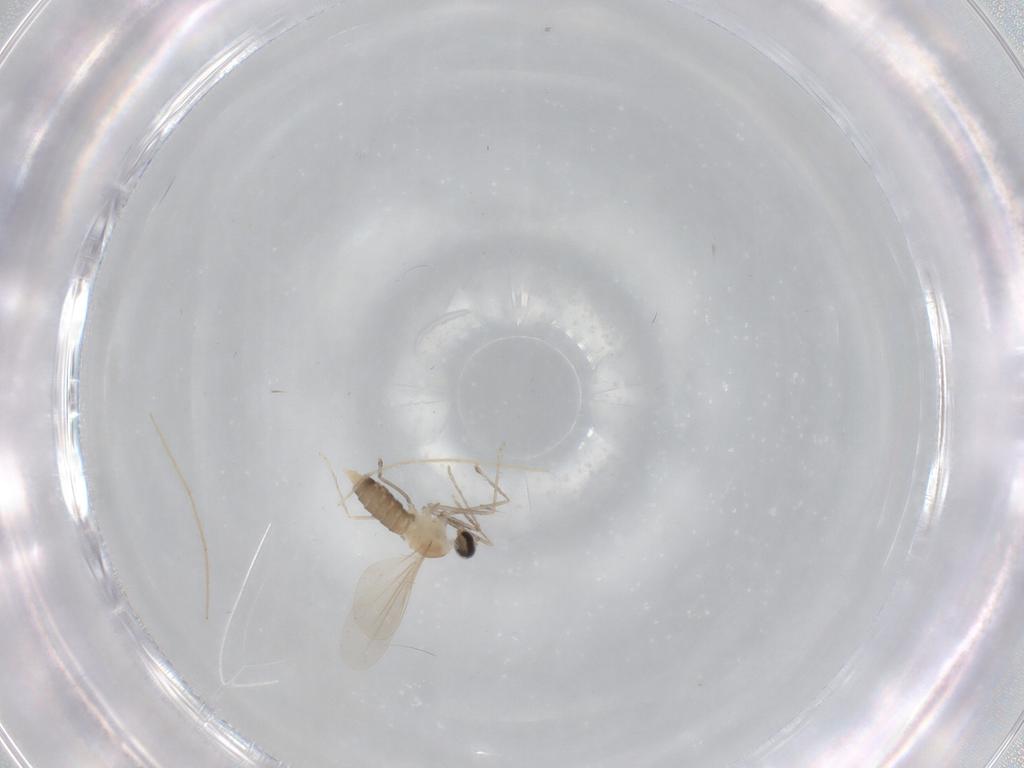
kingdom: Animalia
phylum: Arthropoda
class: Insecta
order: Diptera
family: Cecidomyiidae
